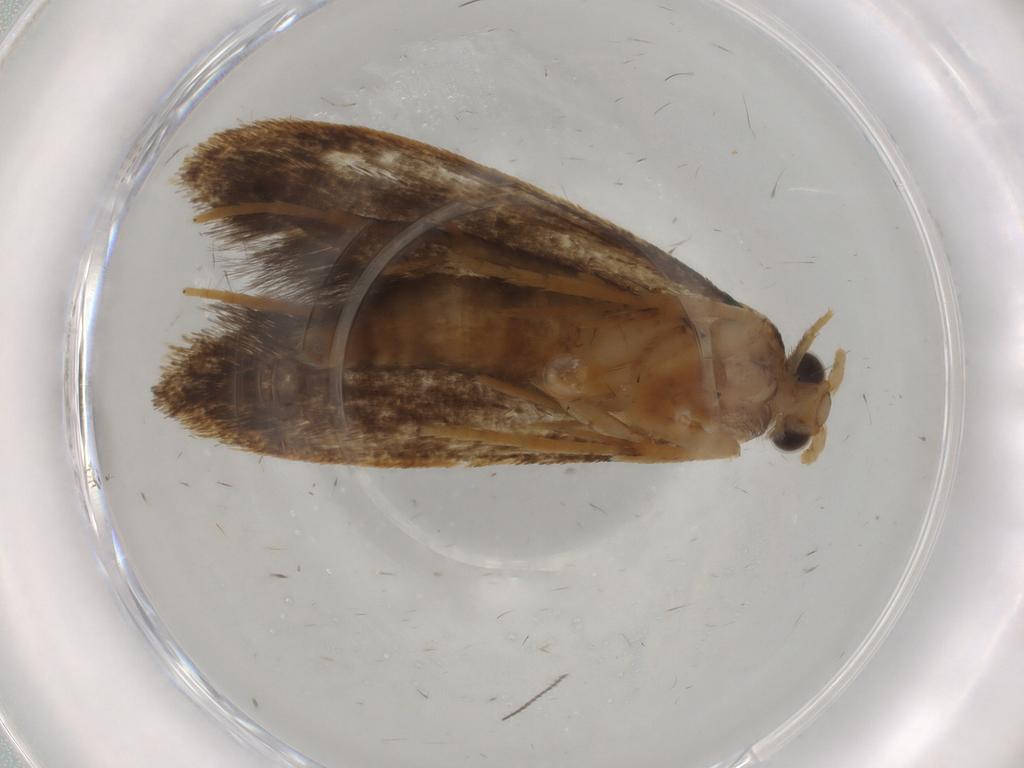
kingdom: Animalia
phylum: Arthropoda
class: Insecta
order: Lepidoptera
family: Tineidae
